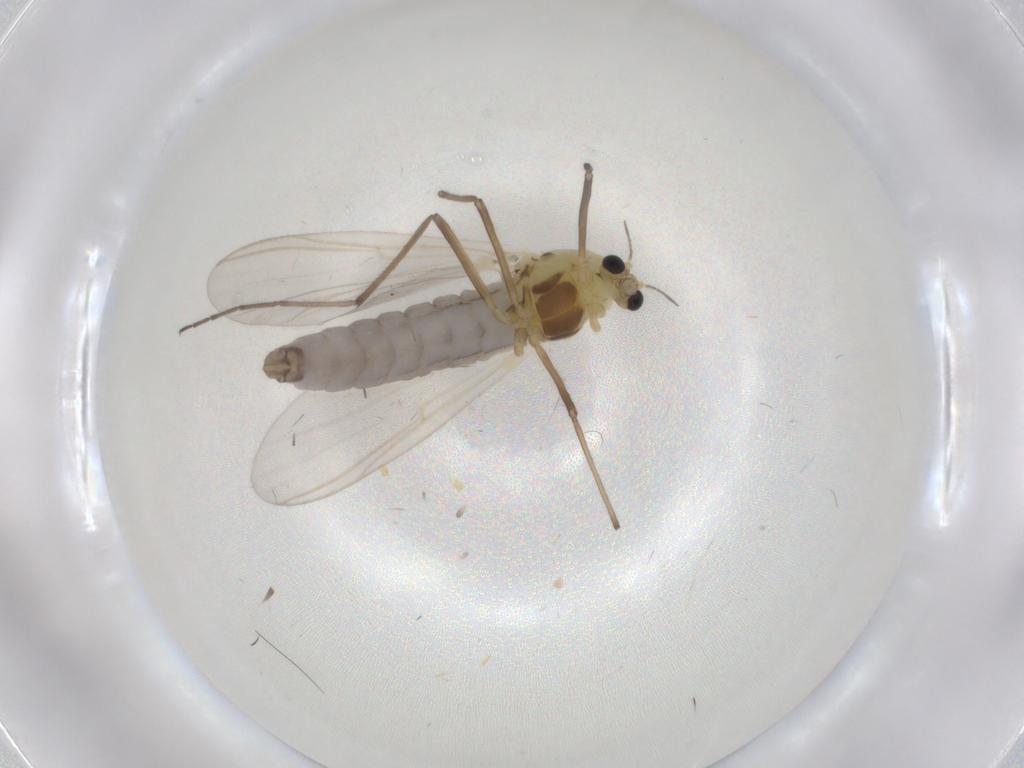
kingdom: Animalia
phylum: Arthropoda
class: Insecta
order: Diptera
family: Chironomidae
